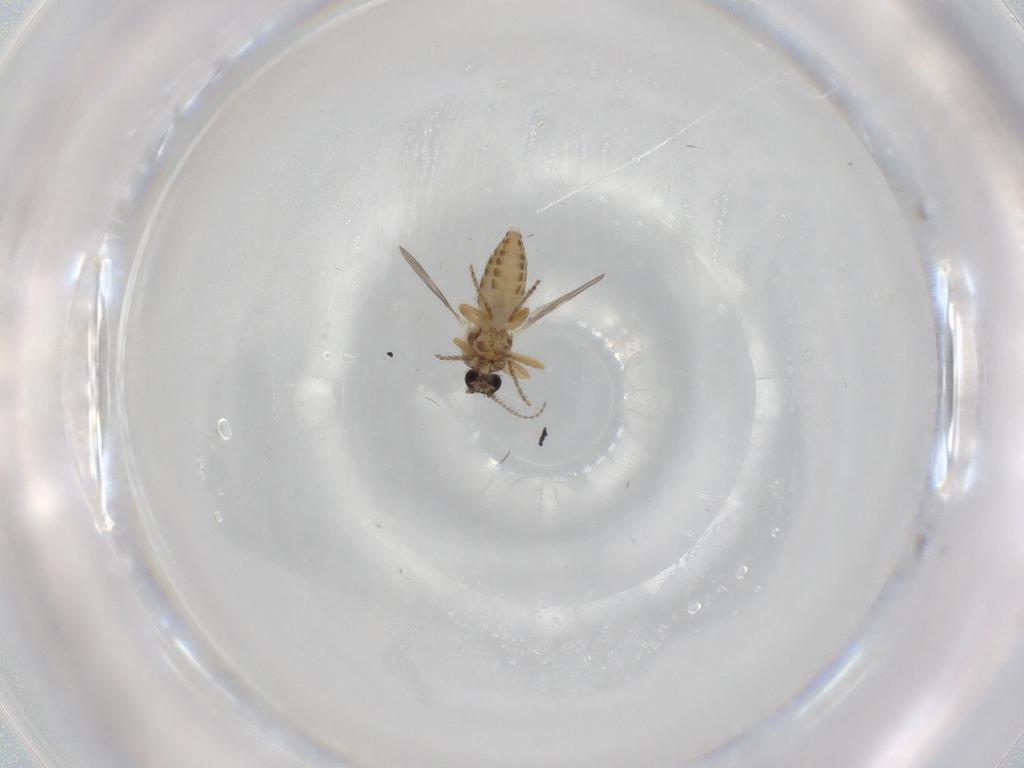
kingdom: Animalia
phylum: Arthropoda
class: Insecta
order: Diptera
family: Ceratopogonidae
